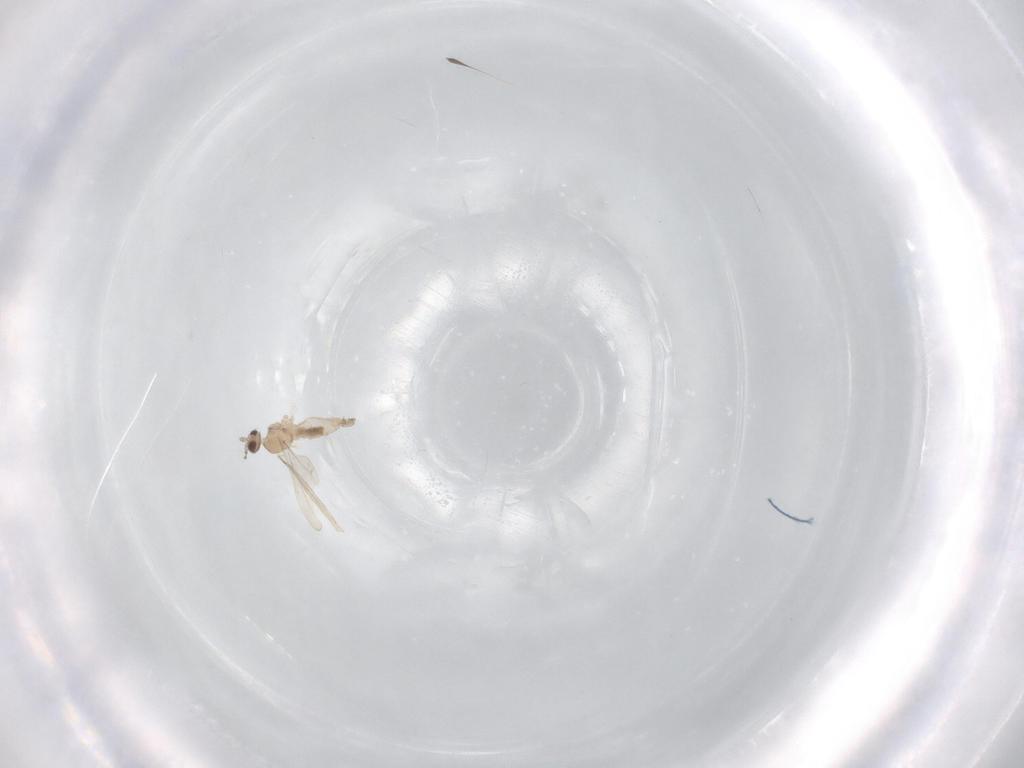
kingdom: Animalia
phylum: Arthropoda
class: Insecta
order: Diptera
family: Cecidomyiidae
